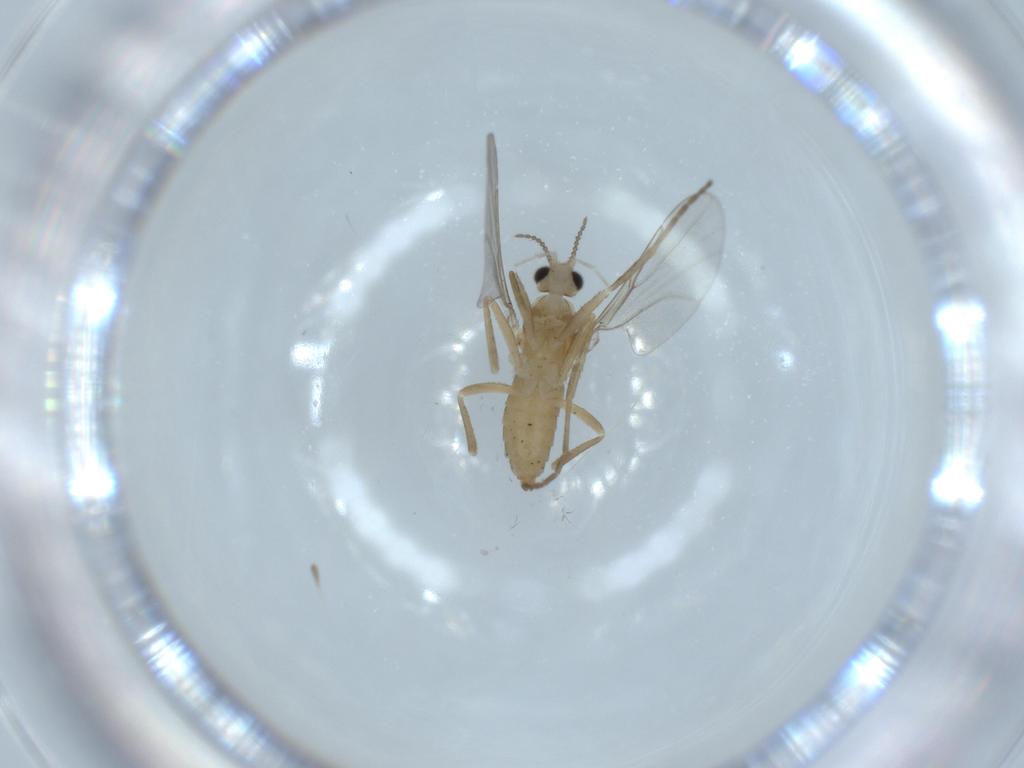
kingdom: Animalia
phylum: Arthropoda
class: Insecta
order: Diptera
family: Cecidomyiidae
